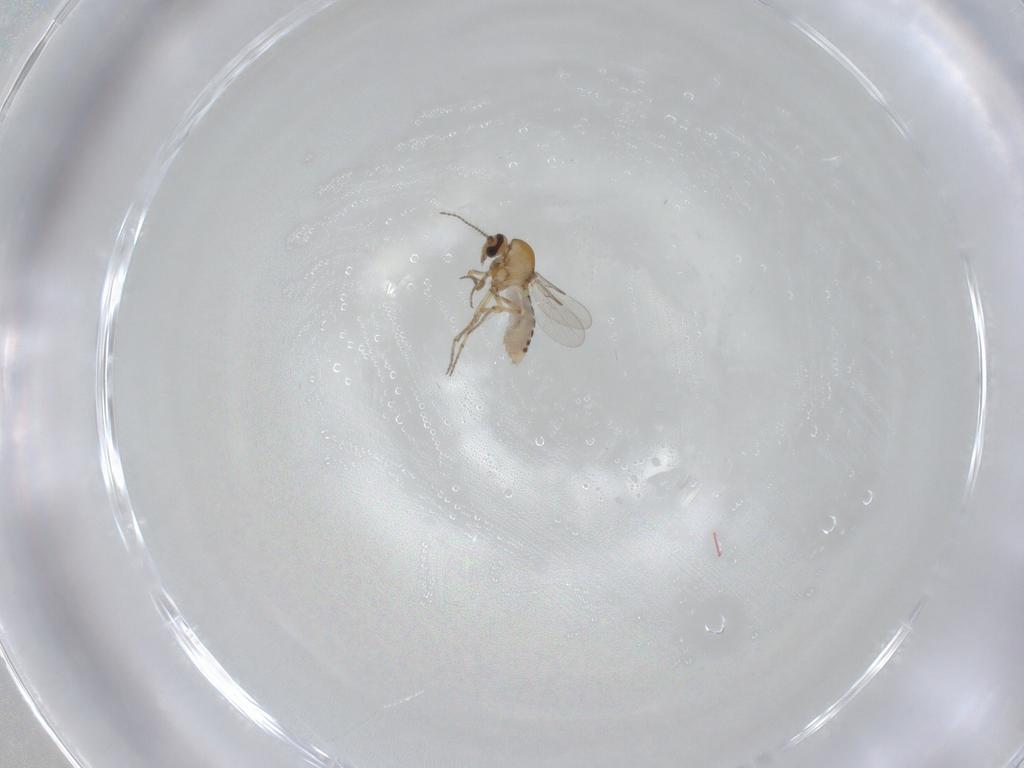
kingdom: Animalia
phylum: Arthropoda
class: Insecta
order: Diptera
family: Ceratopogonidae
